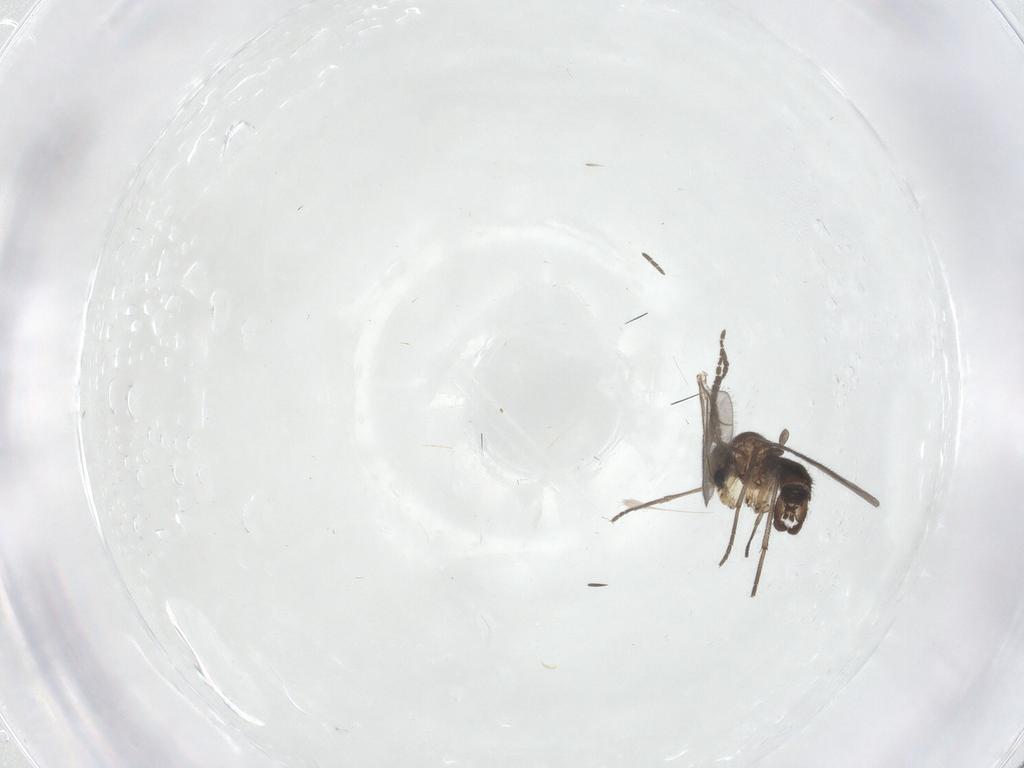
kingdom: Animalia
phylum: Arthropoda
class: Insecta
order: Diptera
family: Sciaridae
